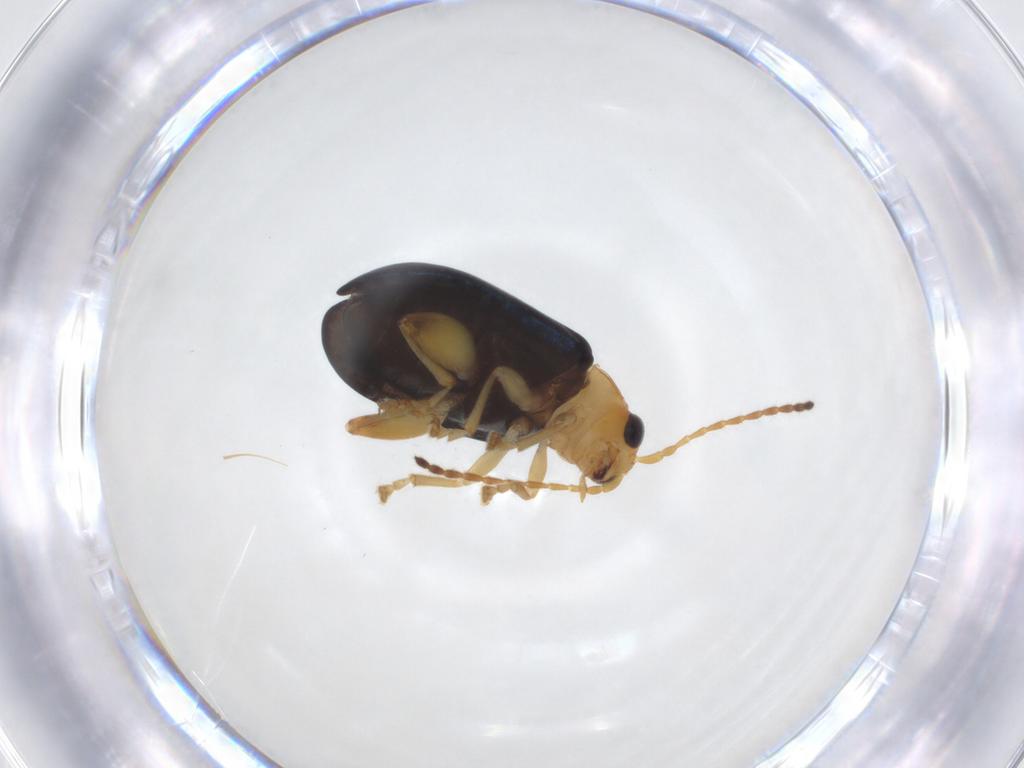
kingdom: Animalia
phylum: Arthropoda
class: Insecta
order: Coleoptera
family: Chrysomelidae
